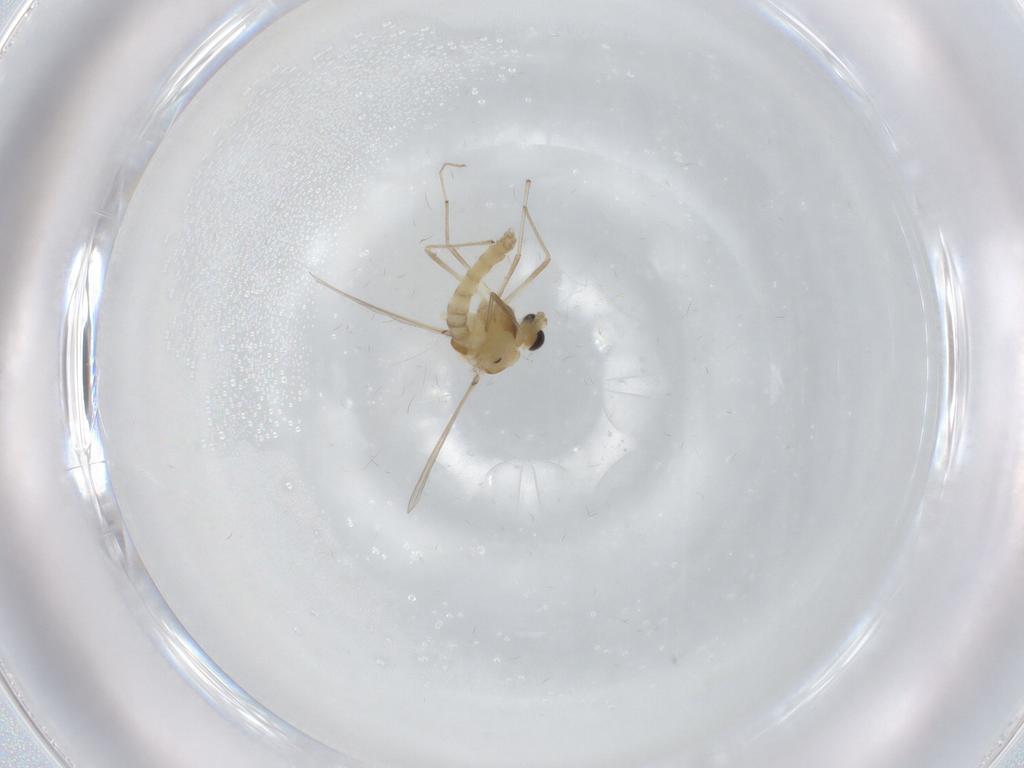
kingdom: Animalia
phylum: Arthropoda
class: Insecta
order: Diptera
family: Chironomidae
